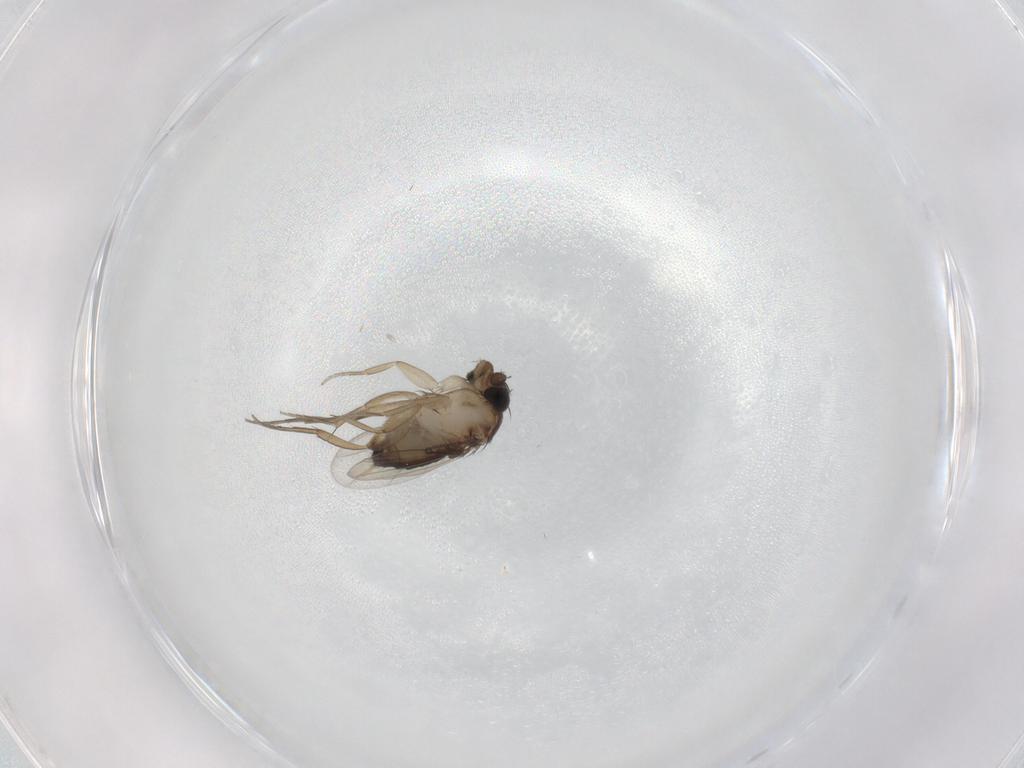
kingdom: Animalia
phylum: Arthropoda
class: Insecta
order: Diptera
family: Phoridae
